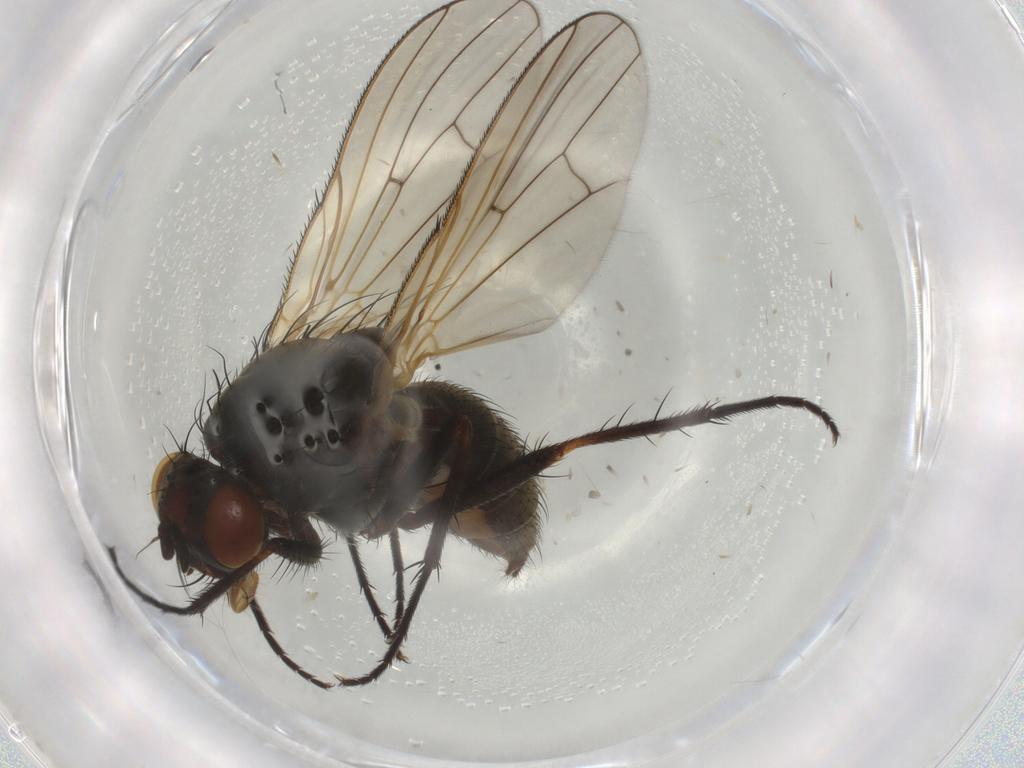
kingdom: Animalia
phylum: Arthropoda
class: Insecta
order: Diptera
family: Anthomyiidae
